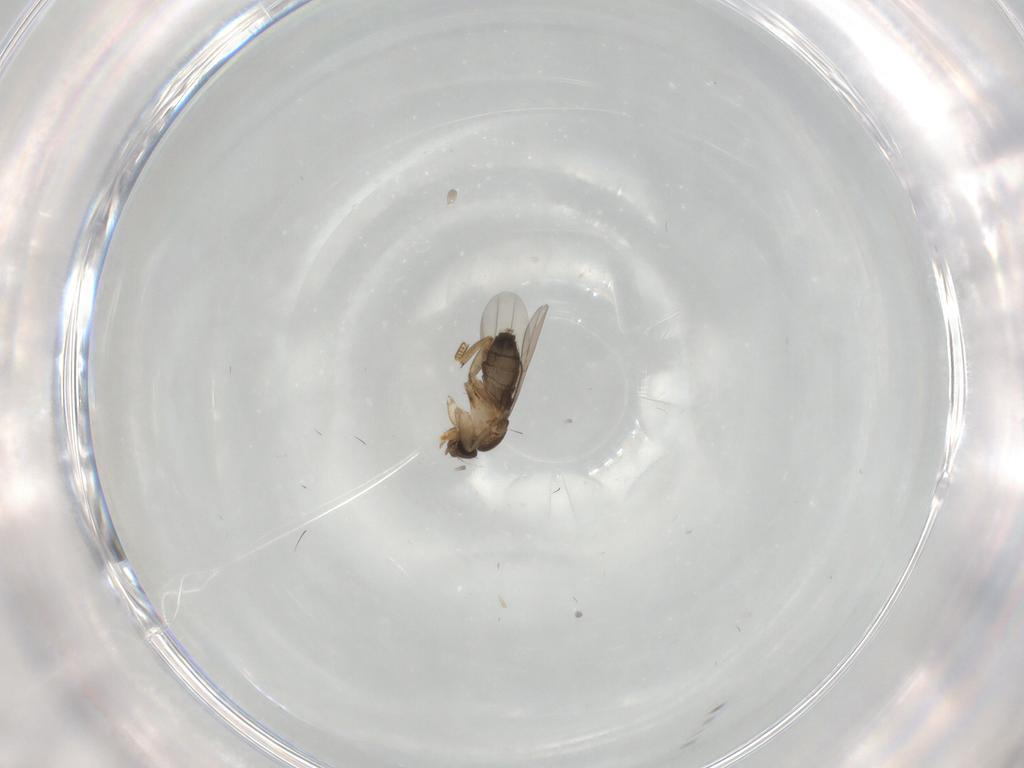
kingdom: Animalia
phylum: Arthropoda
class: Insecta
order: Diptera
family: Phoridae
